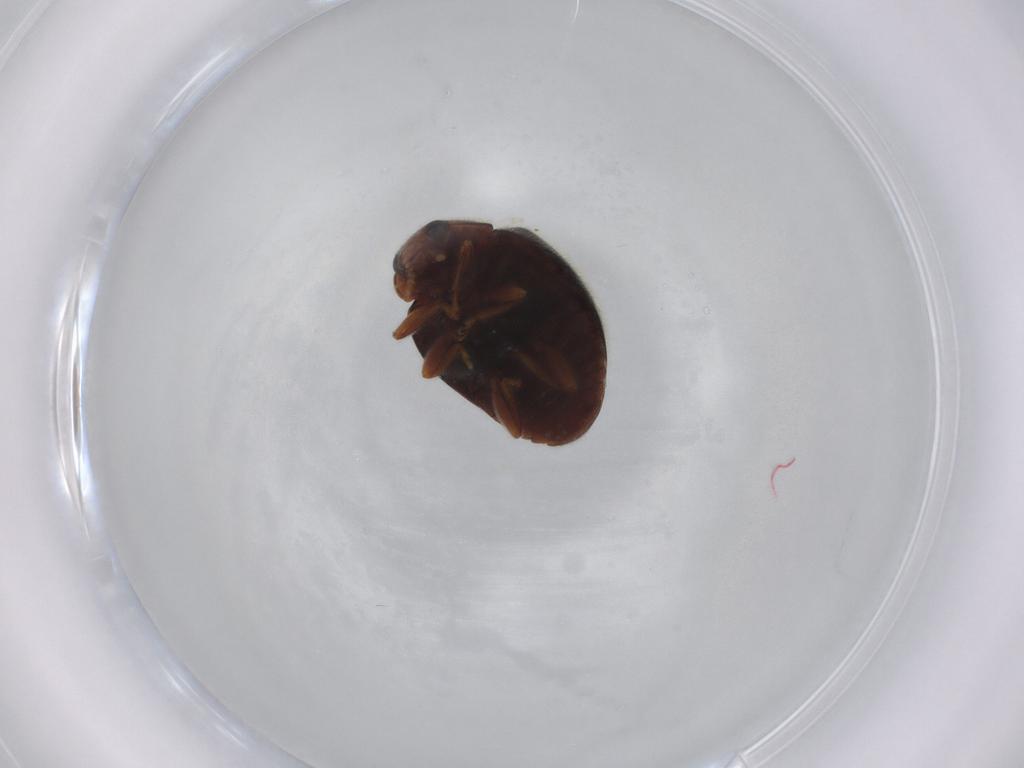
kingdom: Animalia
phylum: Arthropoda
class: Insecta
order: Coleoptera
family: Coccinellidae
